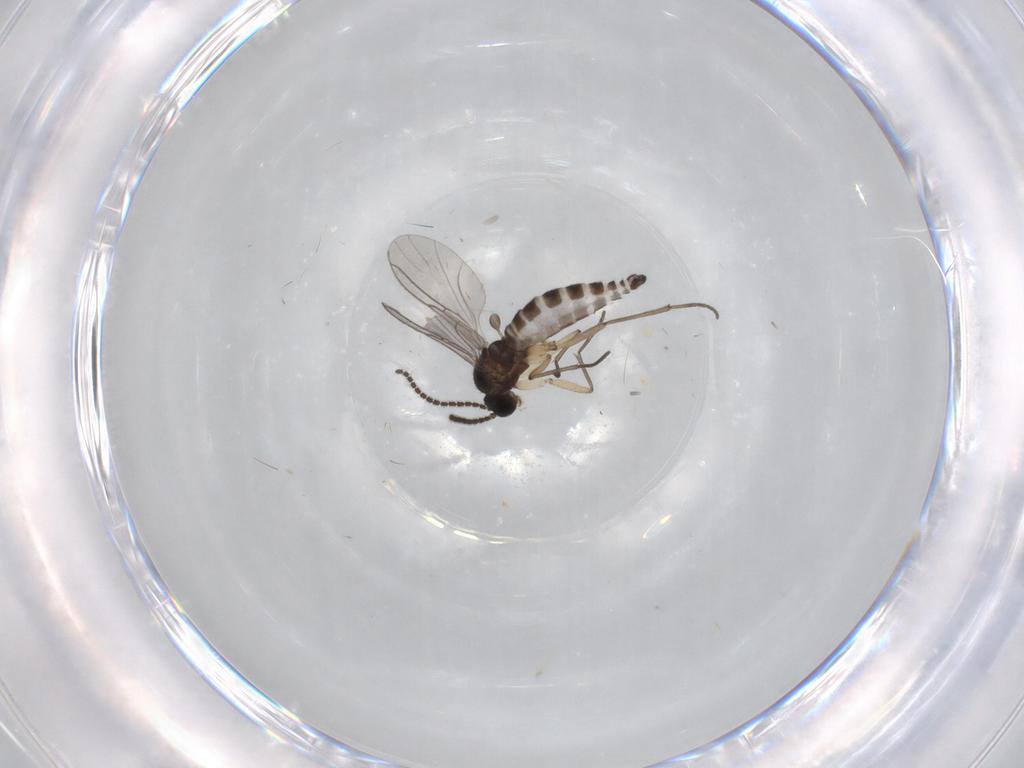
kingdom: Animalia
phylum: Arthropoda
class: Insecta
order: Diptera
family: Sciaridae
